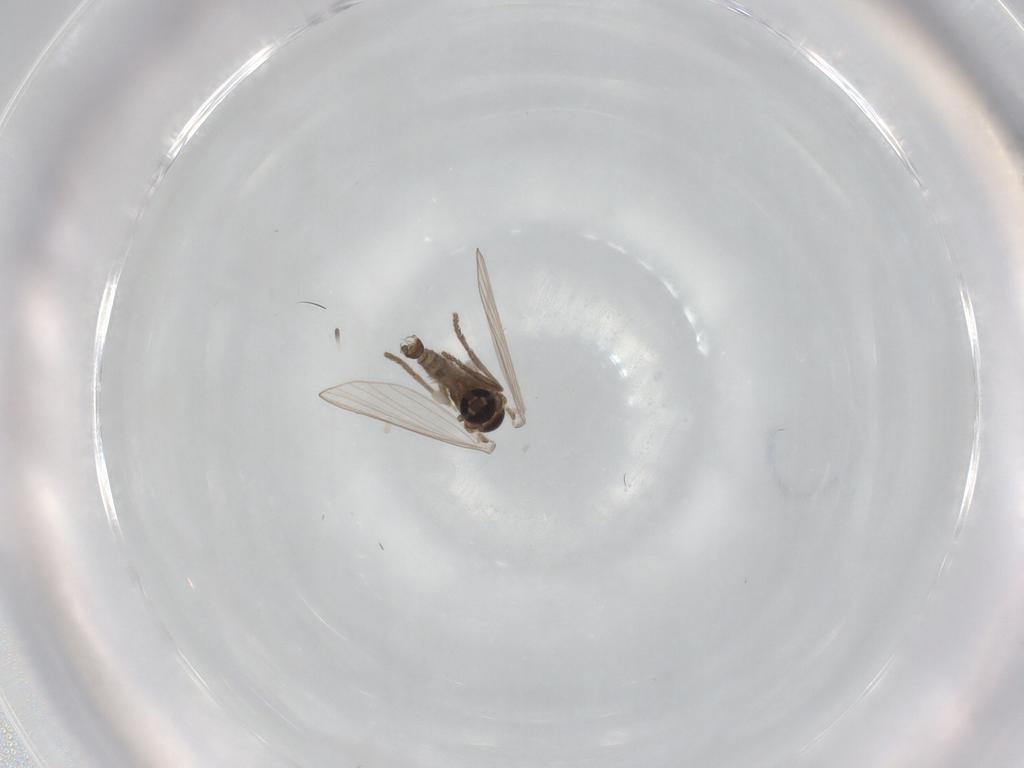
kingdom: Animalia
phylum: Arthropoda
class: Insecta
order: Diptera
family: Psychodidae
